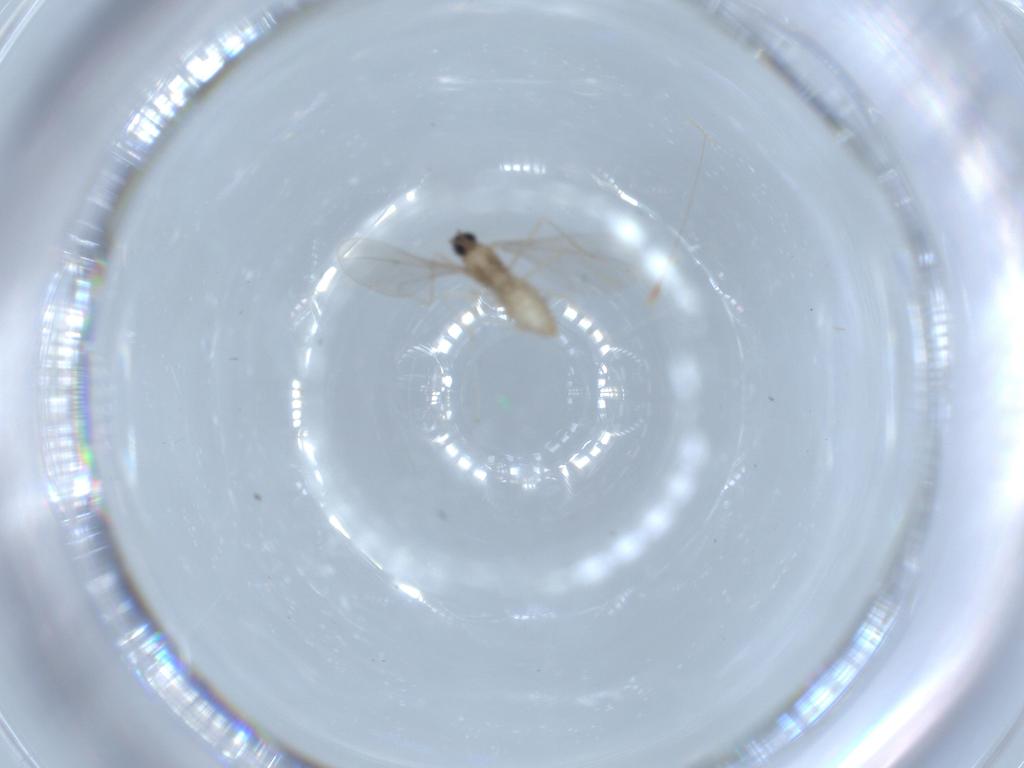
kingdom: Animalia
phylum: Arthropoda
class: Insecta
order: Diptera
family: Cecidomyiidae
